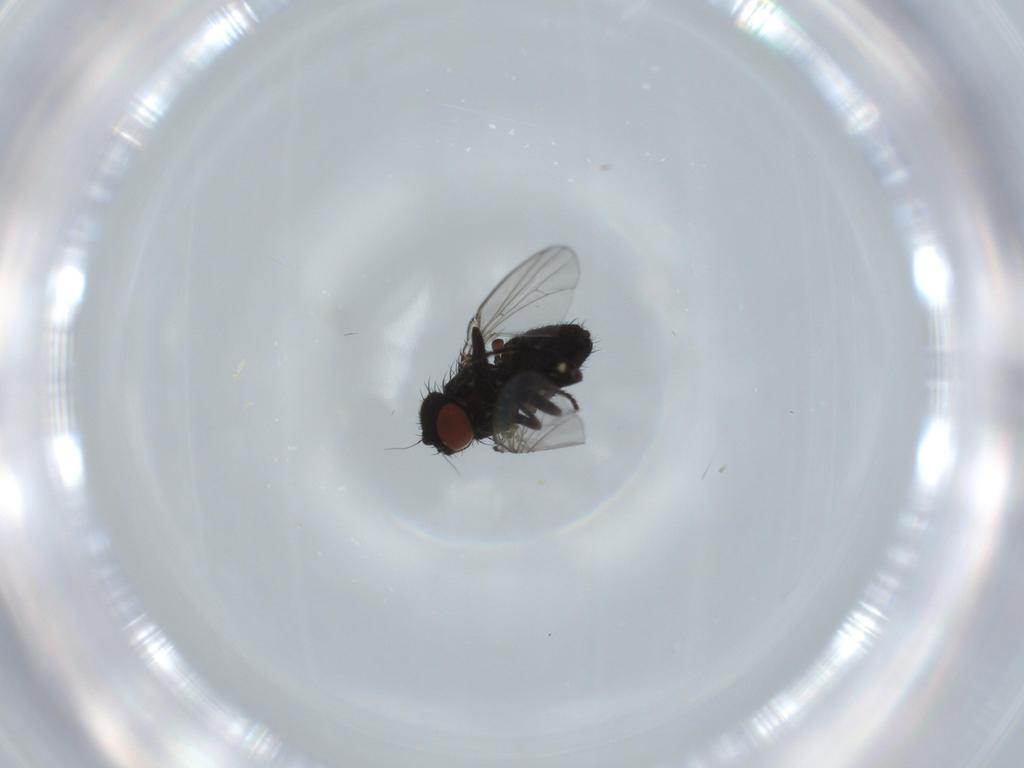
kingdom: Animalia
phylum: Arthropoda
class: Insecta
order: Diptera
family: Milichiidae
